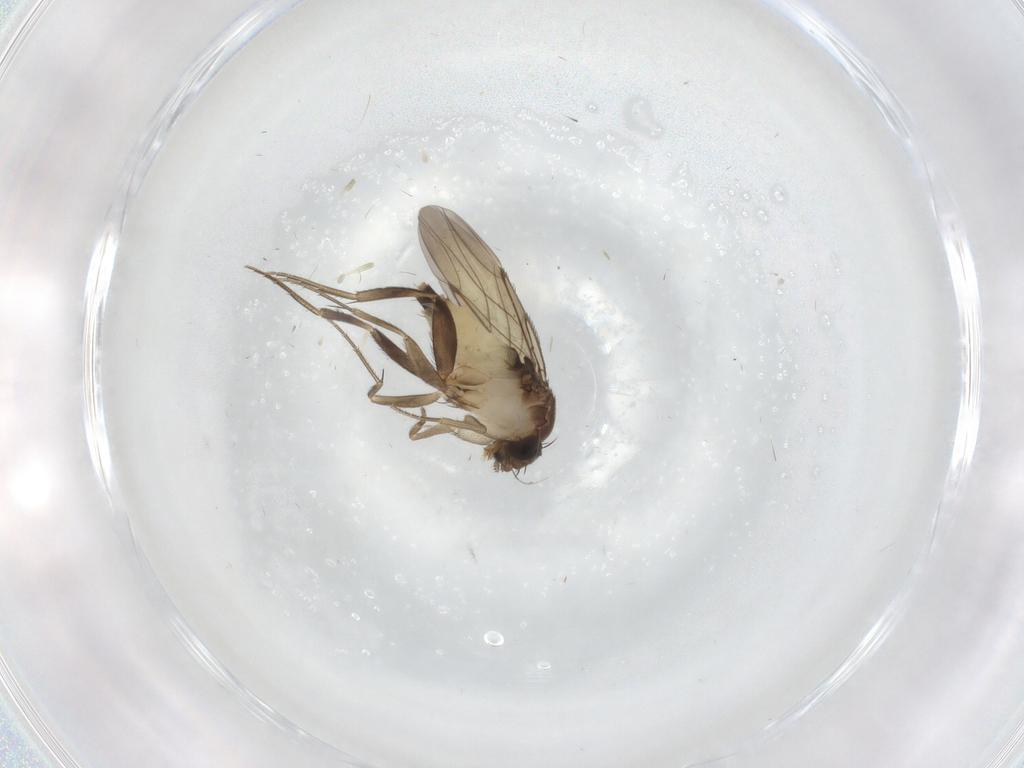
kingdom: Animalia
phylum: Arthropoda
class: Insecta
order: Diptera
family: Phoridae
